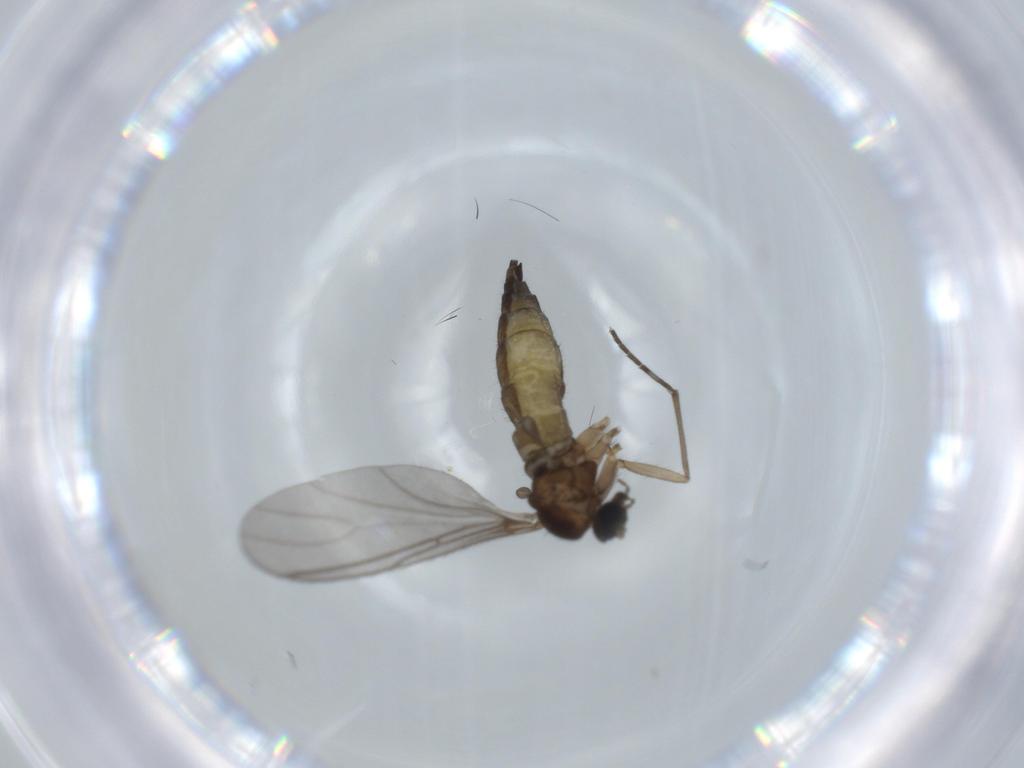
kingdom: Animalia
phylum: Arthropoda
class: Insecta
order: Diptera
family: Sciaridae
